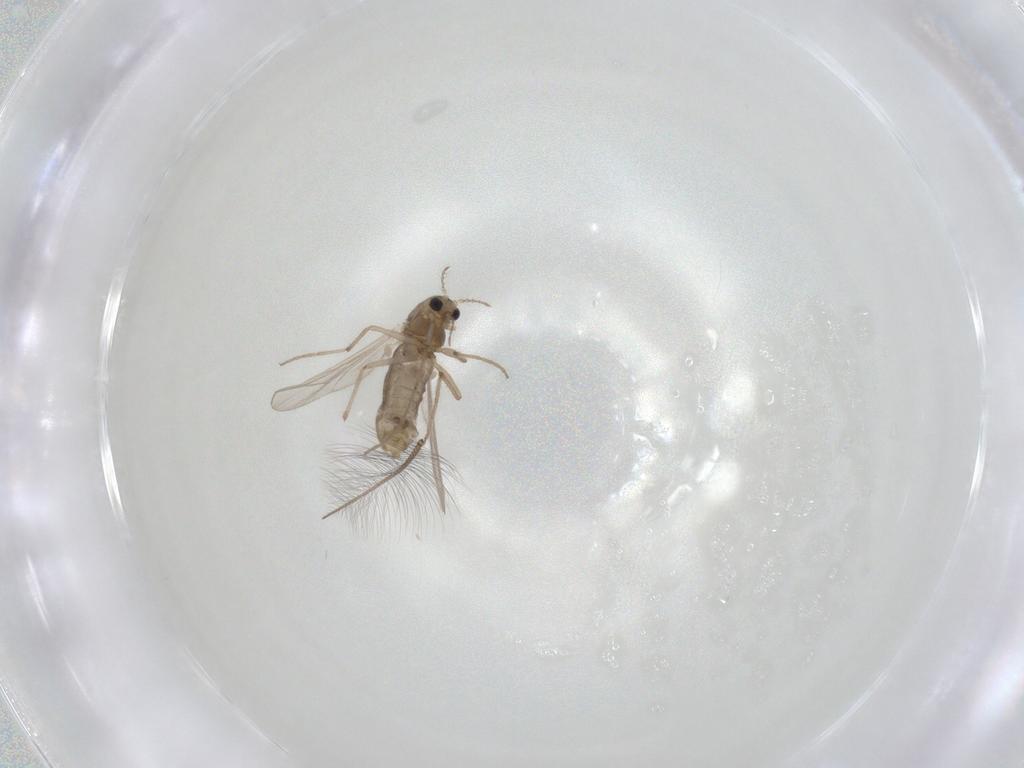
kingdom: Animalia
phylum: Arthropoda
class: Insecta
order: Diptera
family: Chironomidae
